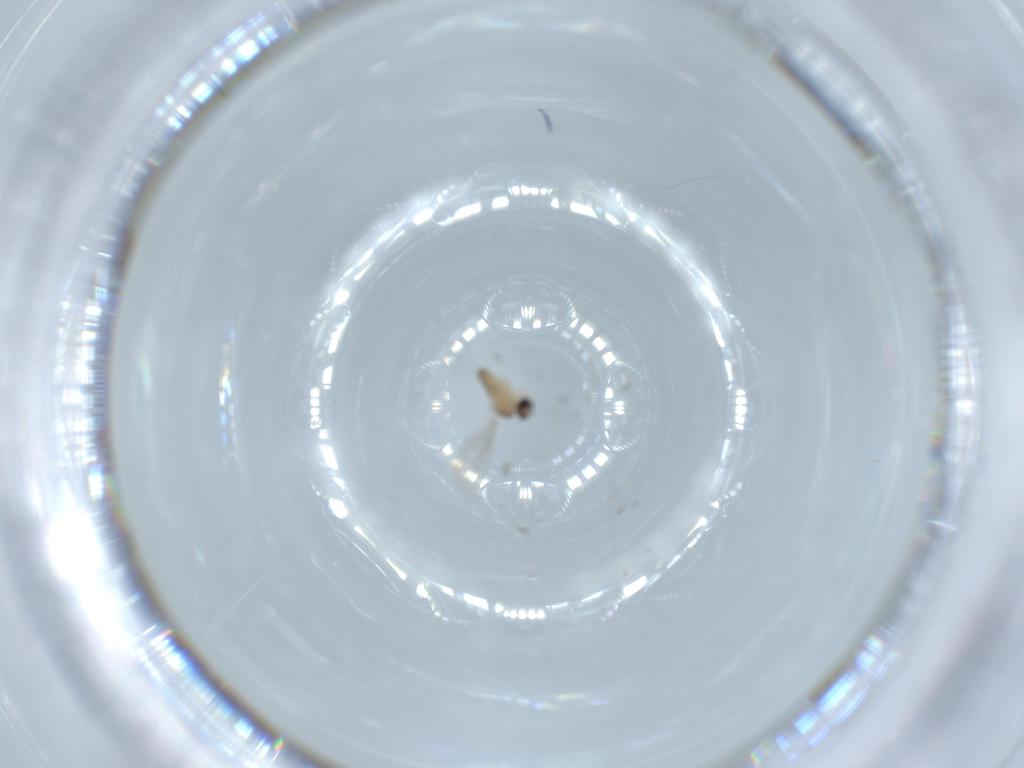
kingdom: Animalia
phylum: Arthropoda
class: Insecta
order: Diptera
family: Cecidomyiidae
